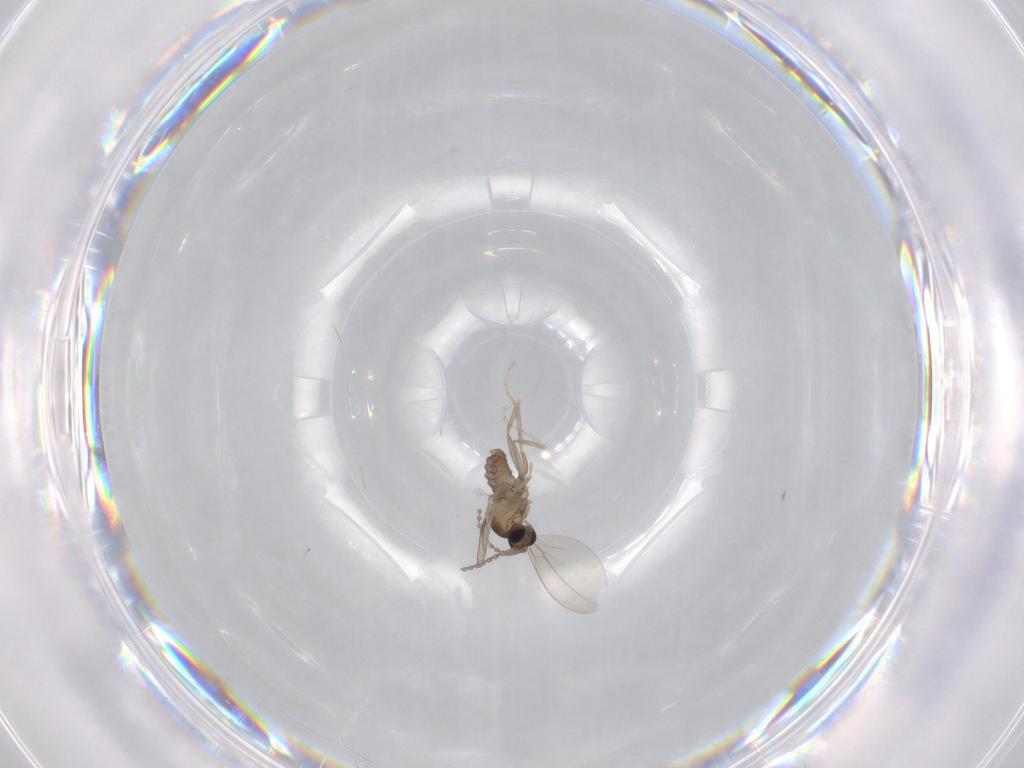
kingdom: Animalia
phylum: Arthropoda
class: Insecta
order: Diptera
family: Cecidomyiidae
